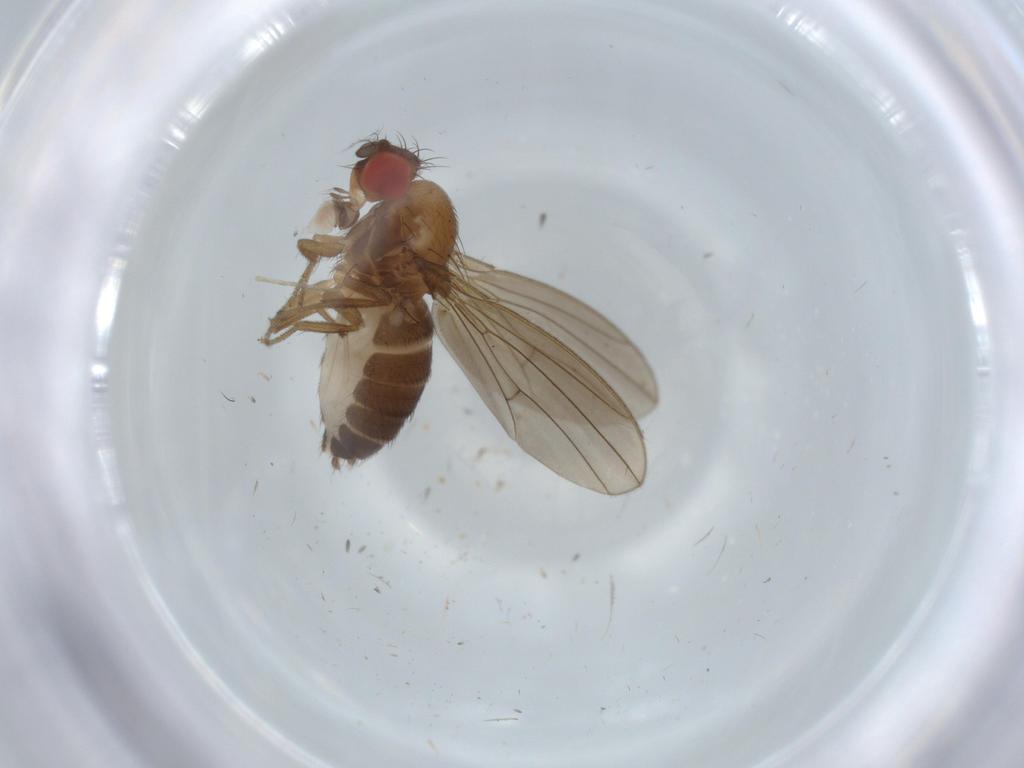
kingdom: Animalia
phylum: Arthropoda
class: Insecta
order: Diptera
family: Drosophilidae
